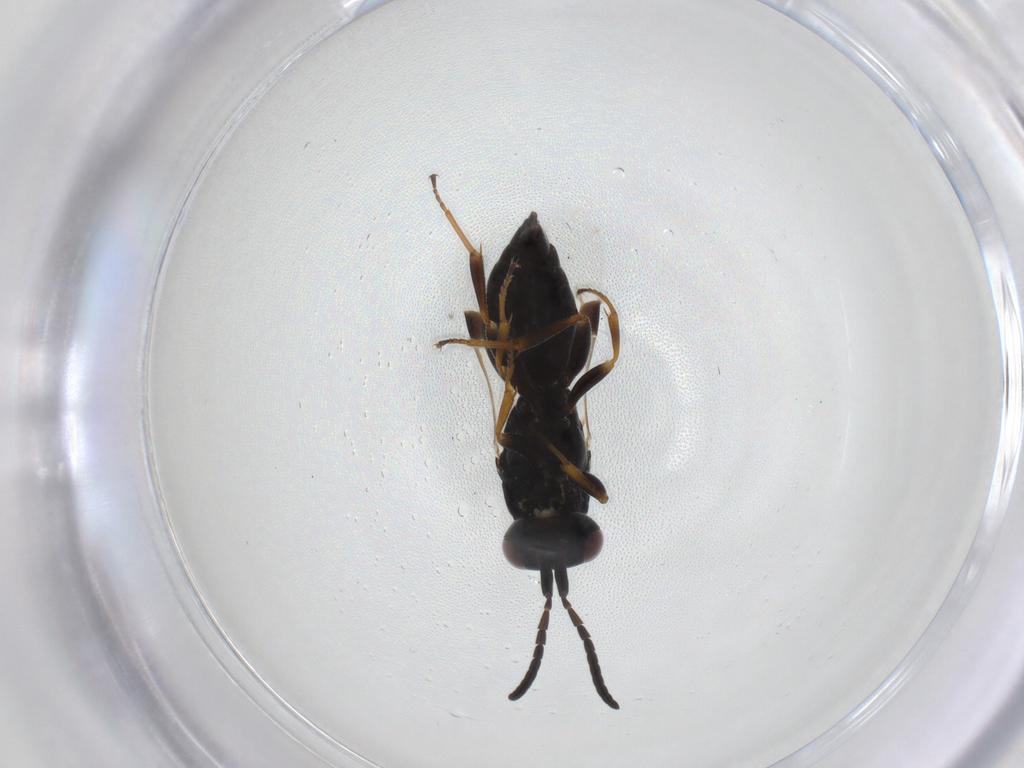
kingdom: Animalia
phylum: Arthropoda
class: Insecta
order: Hymenoptera
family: Megaspilidae
